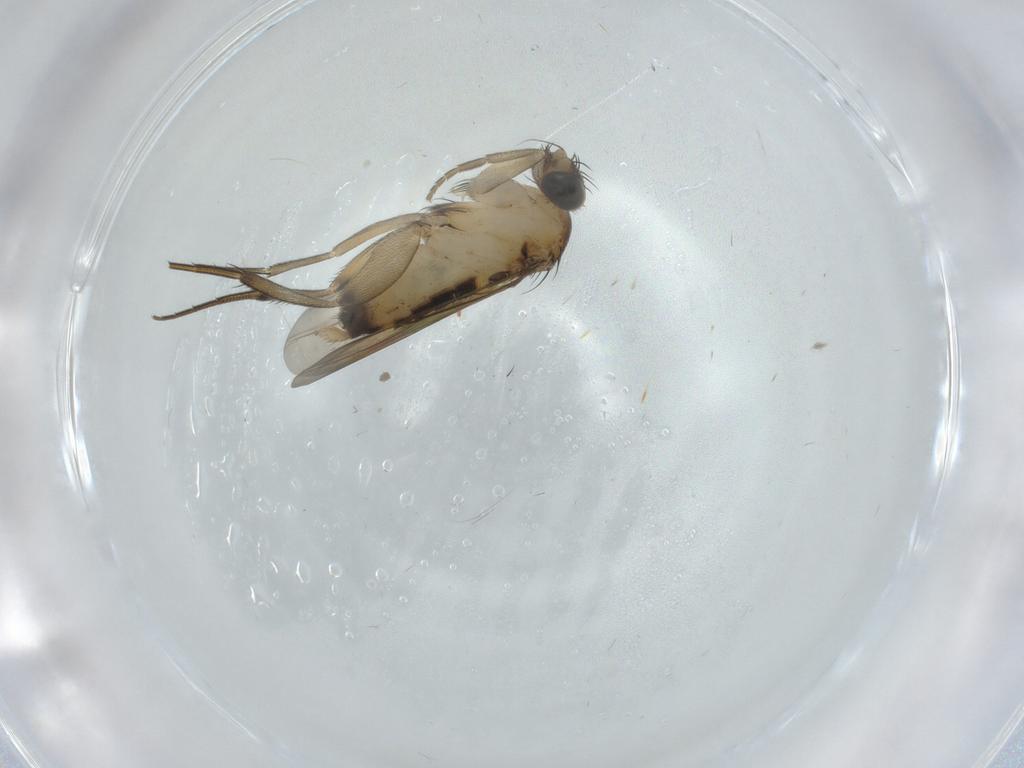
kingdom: Animalia
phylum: Arthropoda
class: Insecta
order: Diptera
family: Phoridae
